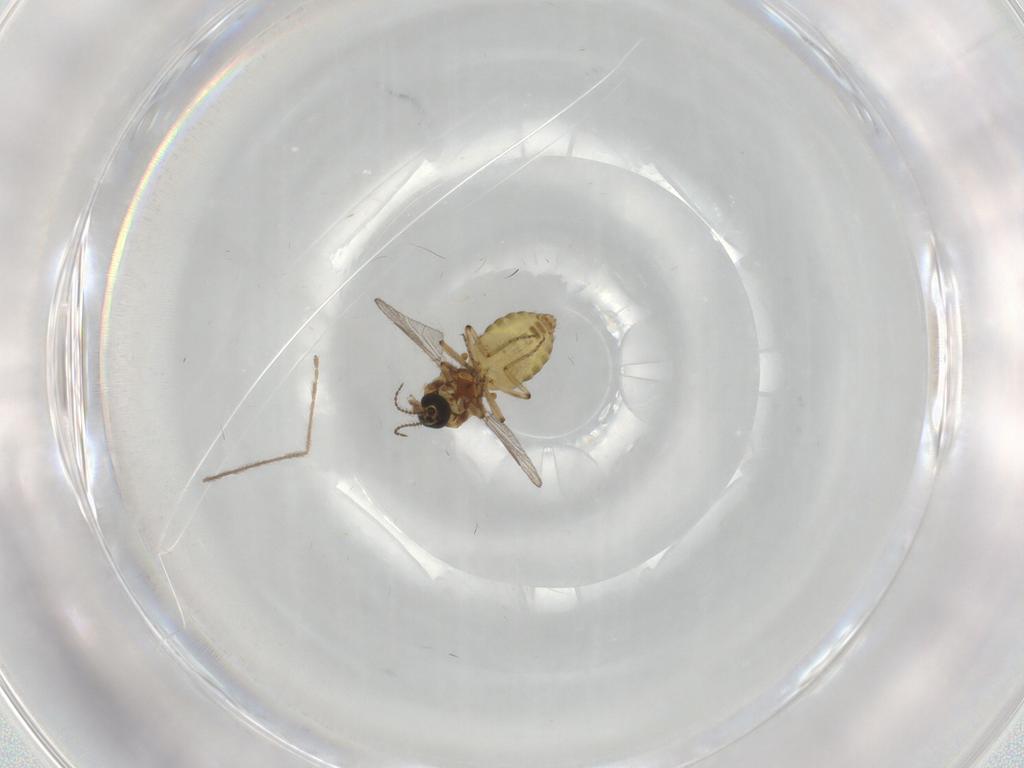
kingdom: Animalia
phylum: Arthropoda
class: Insecta
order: Diptera
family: Ceratopogonidae
